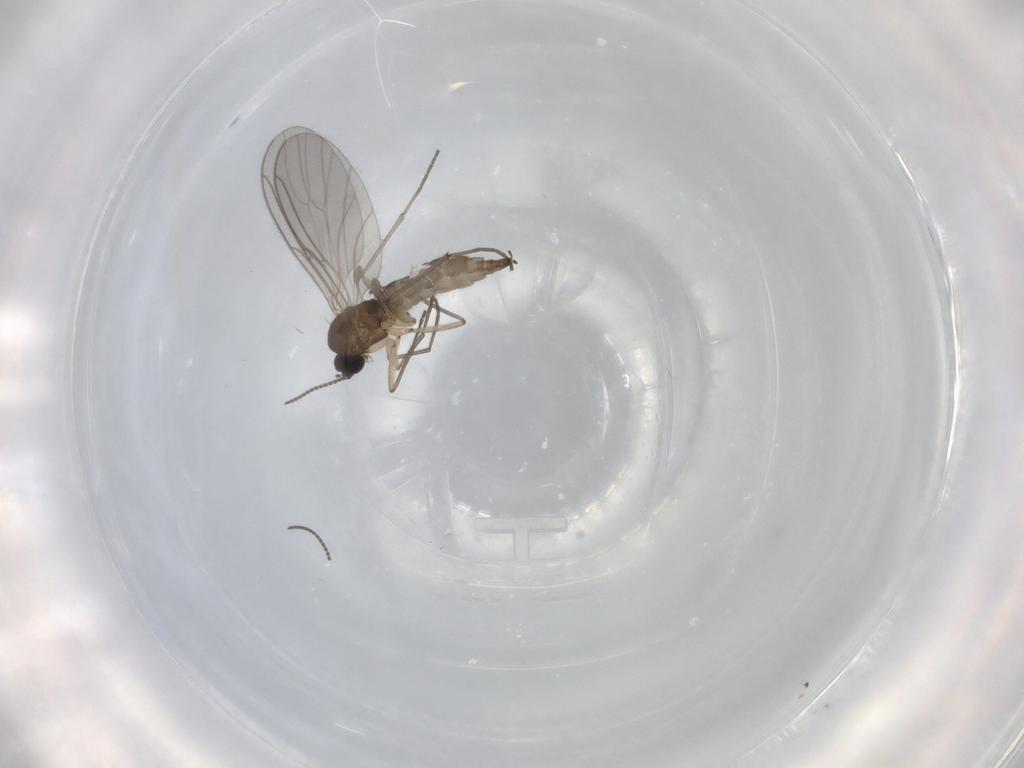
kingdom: Animalia
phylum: Arthropoda
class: Insecta
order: Diptera
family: Sciaridae
